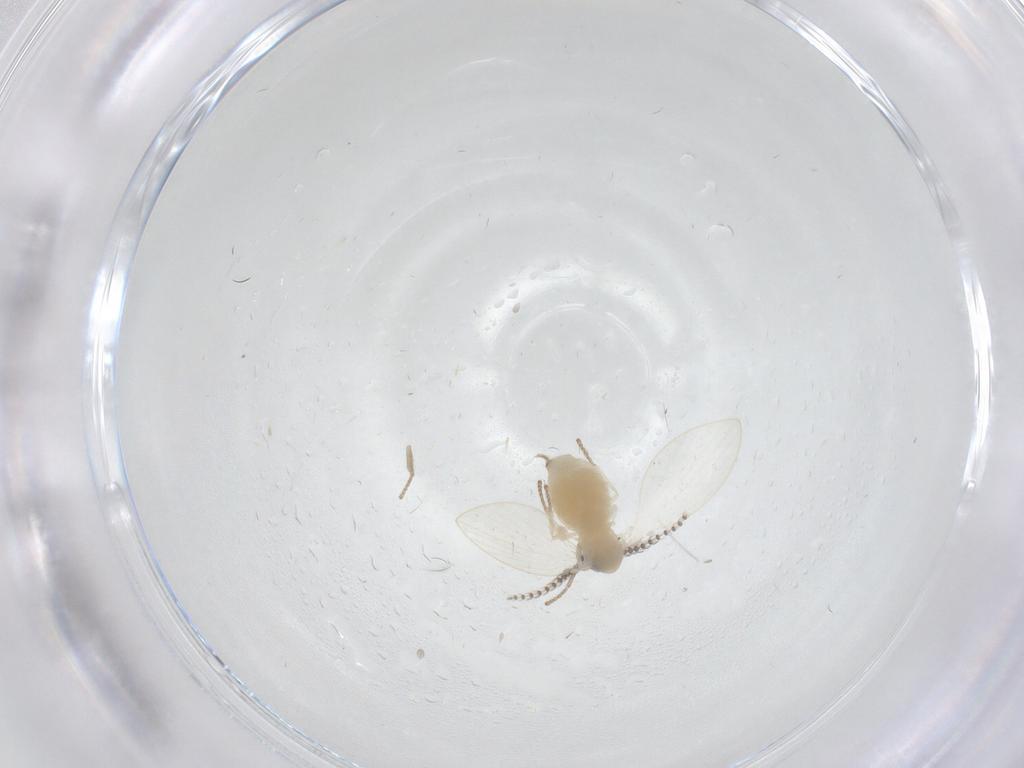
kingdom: Animalia
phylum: Arthropoda
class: Insecta
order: Diptera
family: Psychodidae
